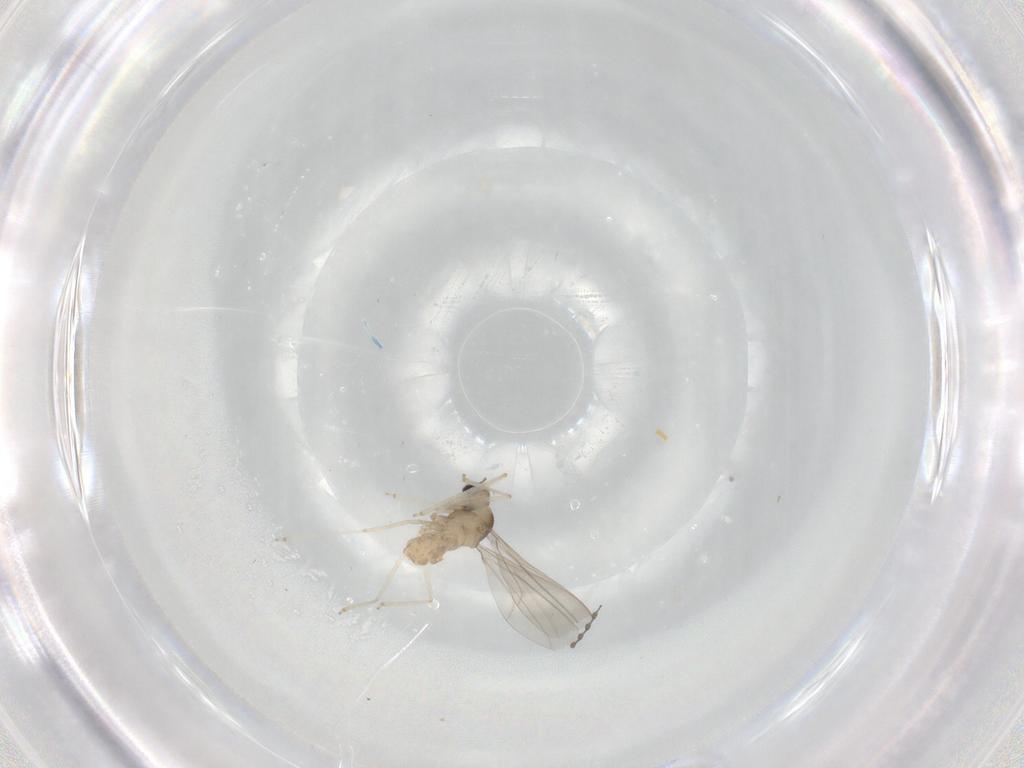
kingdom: Animalia
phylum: Arthropoda
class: Insecta
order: Diptera
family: Cecidomyiidae
